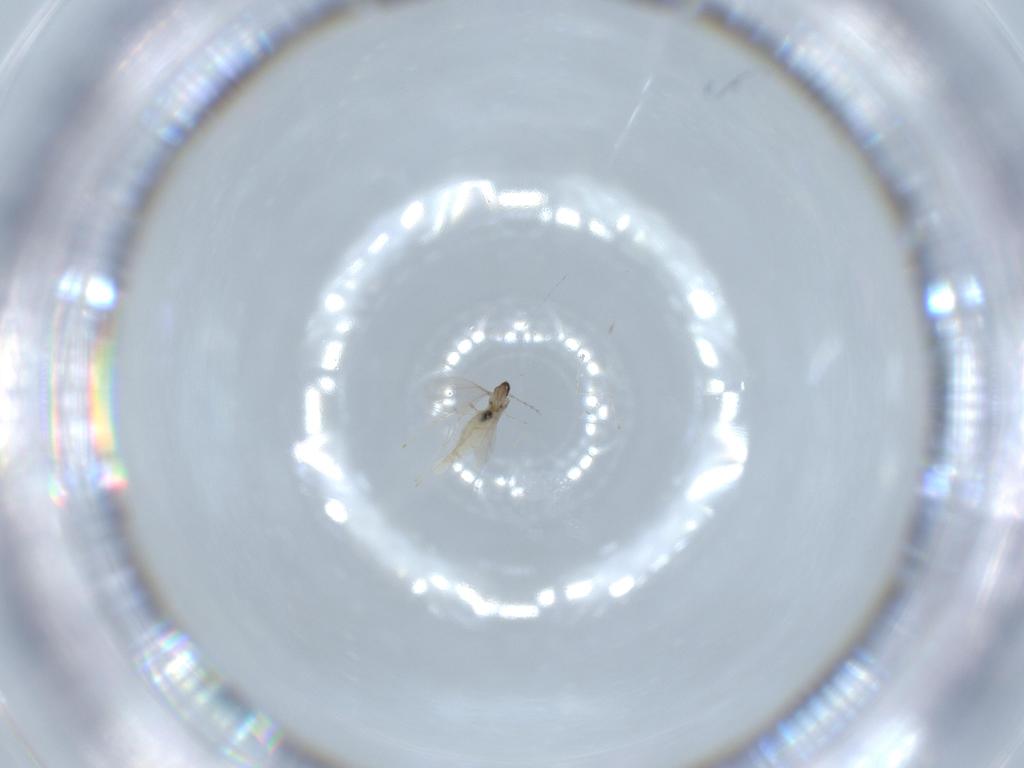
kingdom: Animalia
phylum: Arthropoda
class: Insecta
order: Diptera
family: Cecidomyiidae
